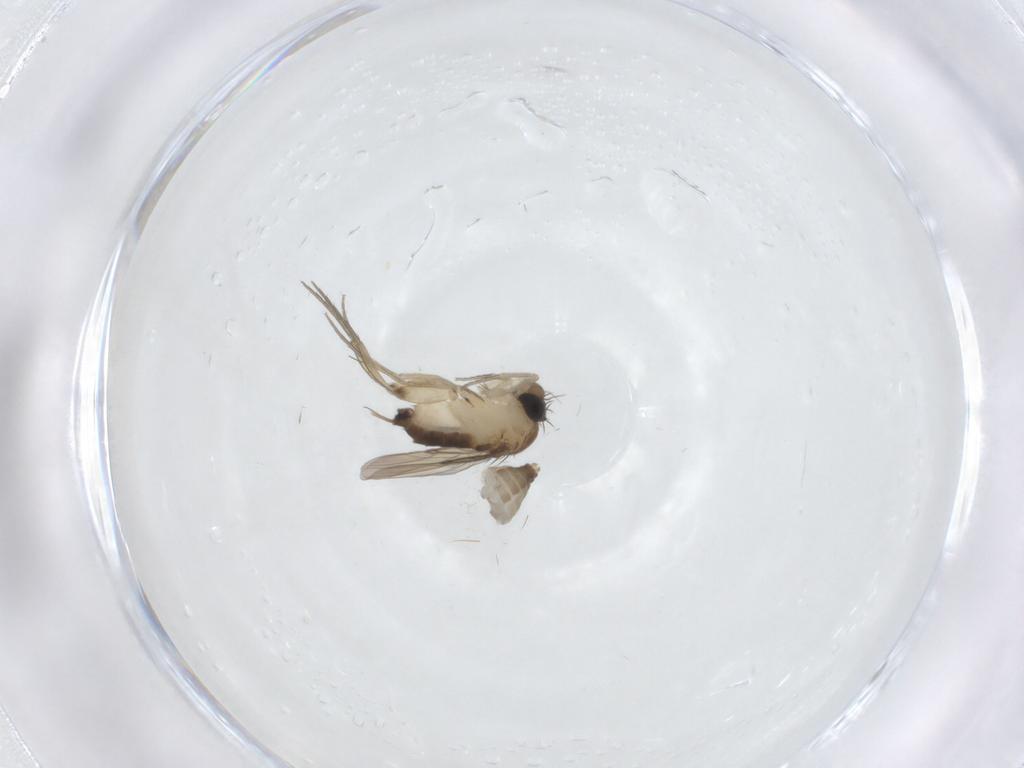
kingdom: Animalia
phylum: Arthropoda
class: Insecta
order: Diptera
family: Phoridae
